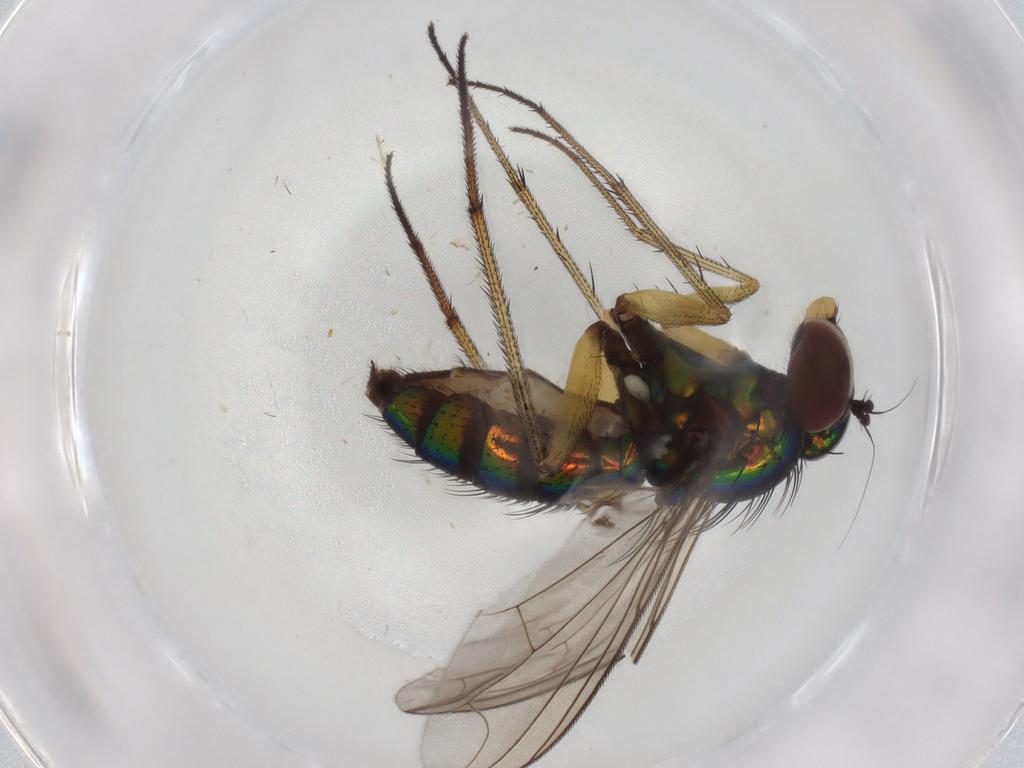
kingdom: Animalia
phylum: Arthropoda
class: Insecta
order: Diptera
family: Dolichopodidae
